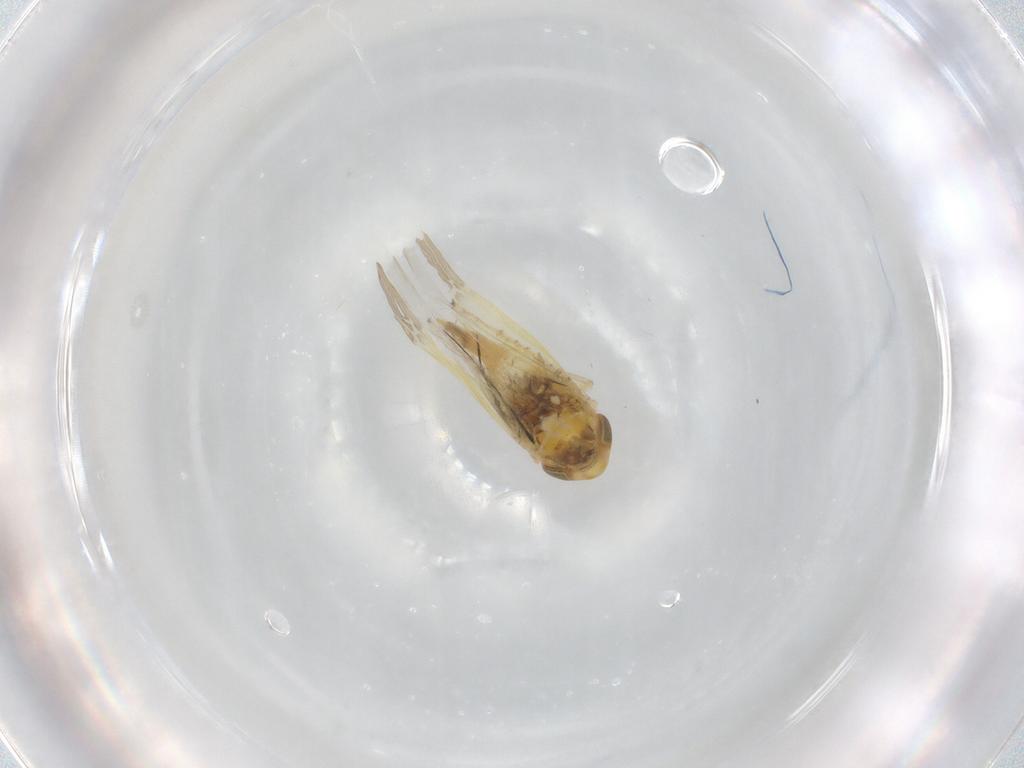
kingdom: Animalia
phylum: Arthropoda
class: Insecta
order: Hemiptera
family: Cicadellidae
